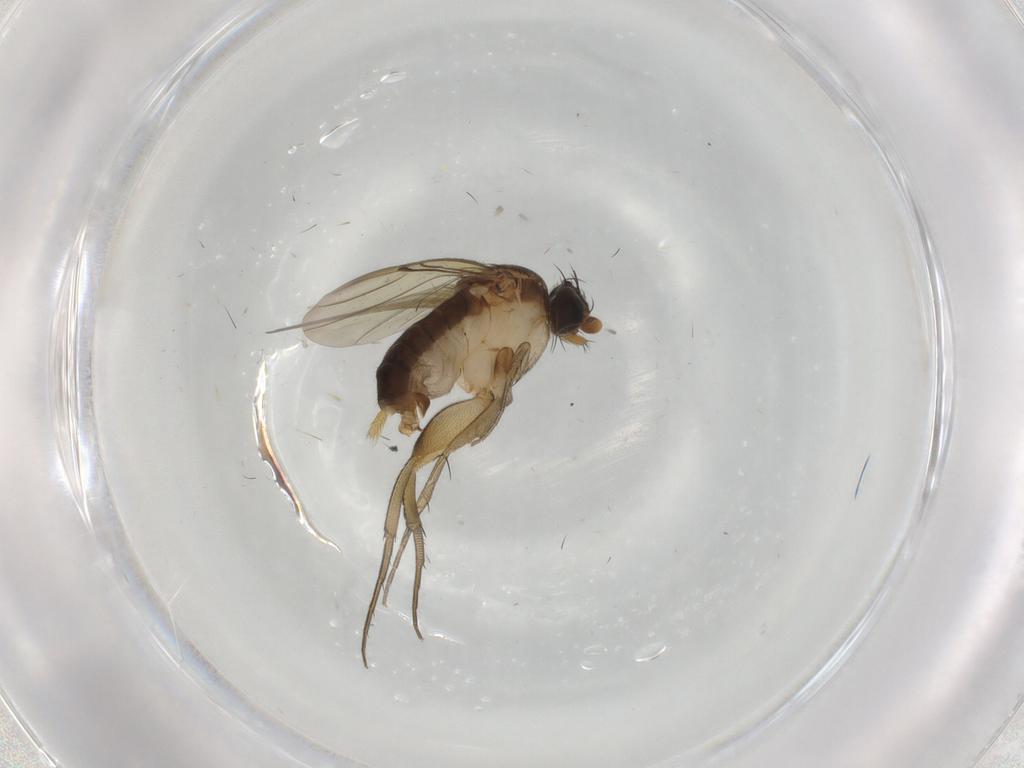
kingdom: Animalia
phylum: Arthropoda
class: Insecta
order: Diptera
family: Phoridae
